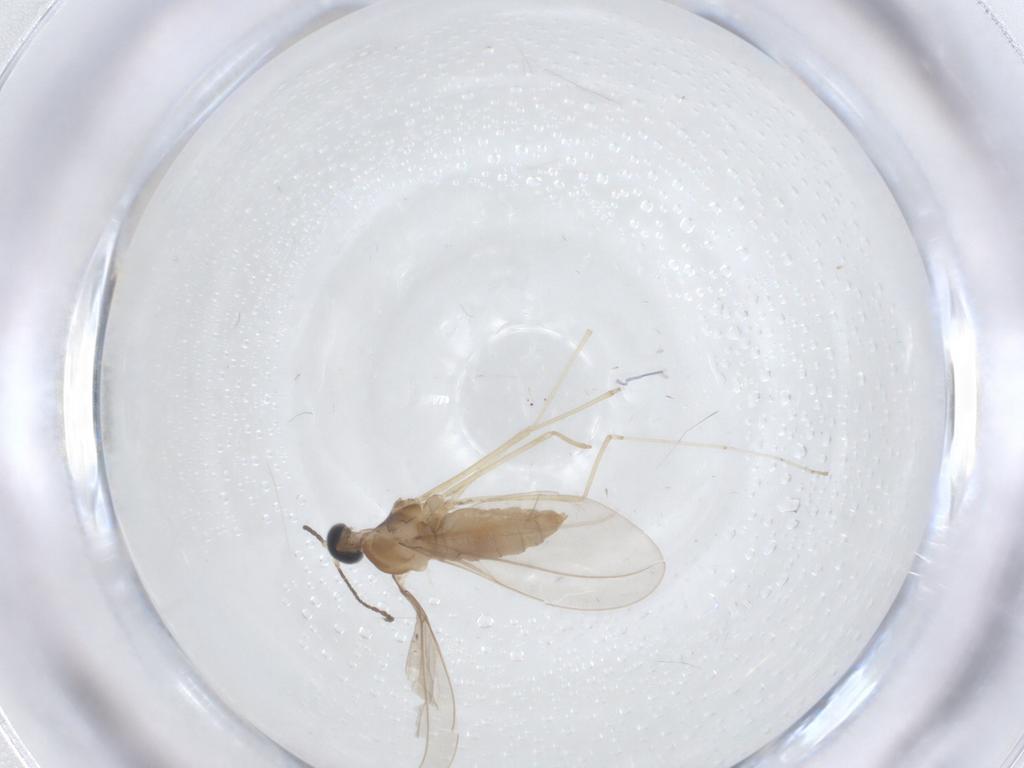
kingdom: Animalia
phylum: Arthropoda
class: Insecta
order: Diptera
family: Cecidomyiidae
